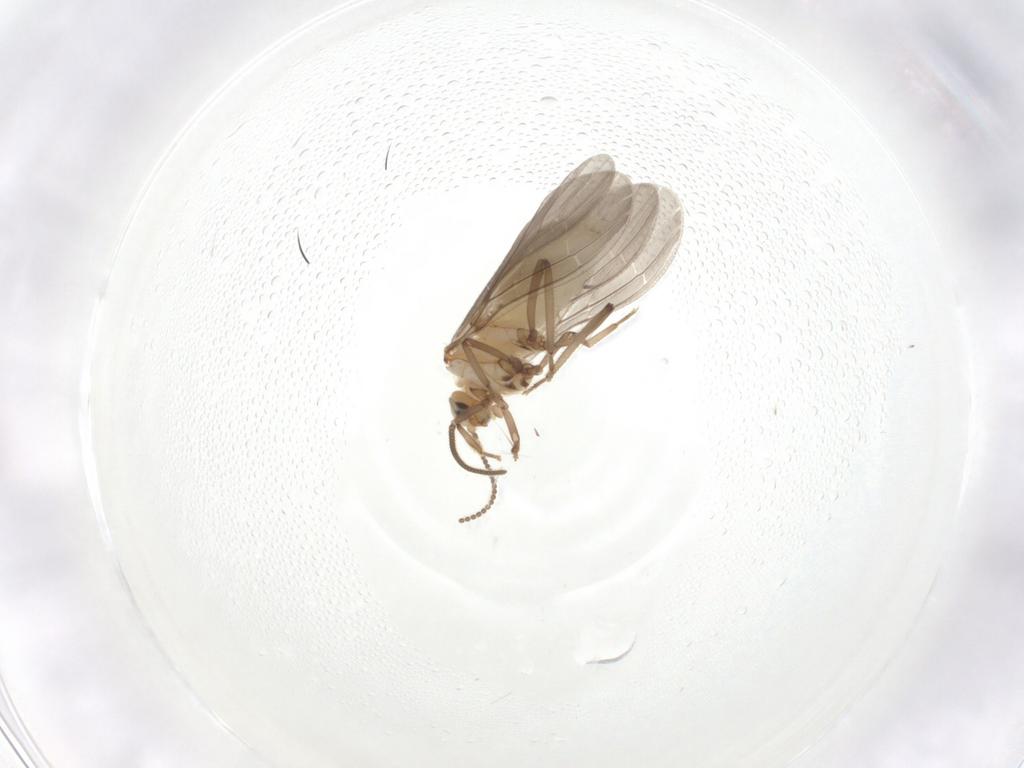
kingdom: Animalia
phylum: Arthropoda
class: Insecta
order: Neuroptera
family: Coniopterygidae
